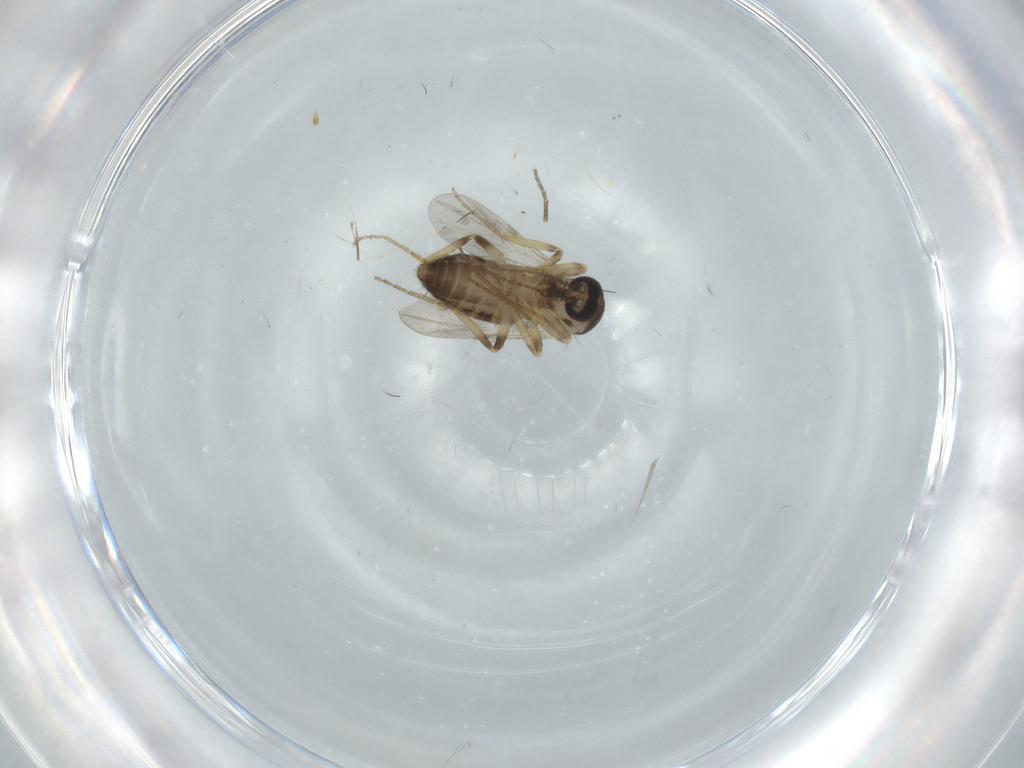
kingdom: Animalia
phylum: Arthropoda
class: Insecta
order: Diptera
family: Ceratopogonidae
